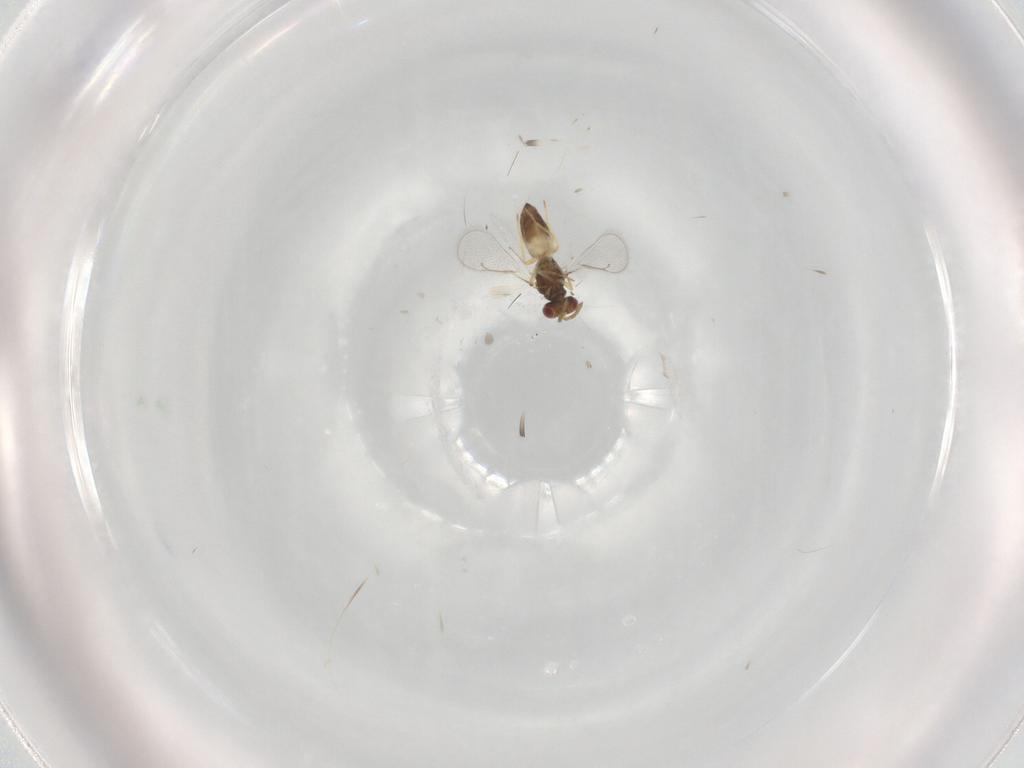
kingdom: Animalia
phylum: Arthropoda
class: Insecta
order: Hymenoptera
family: Eulophidae
